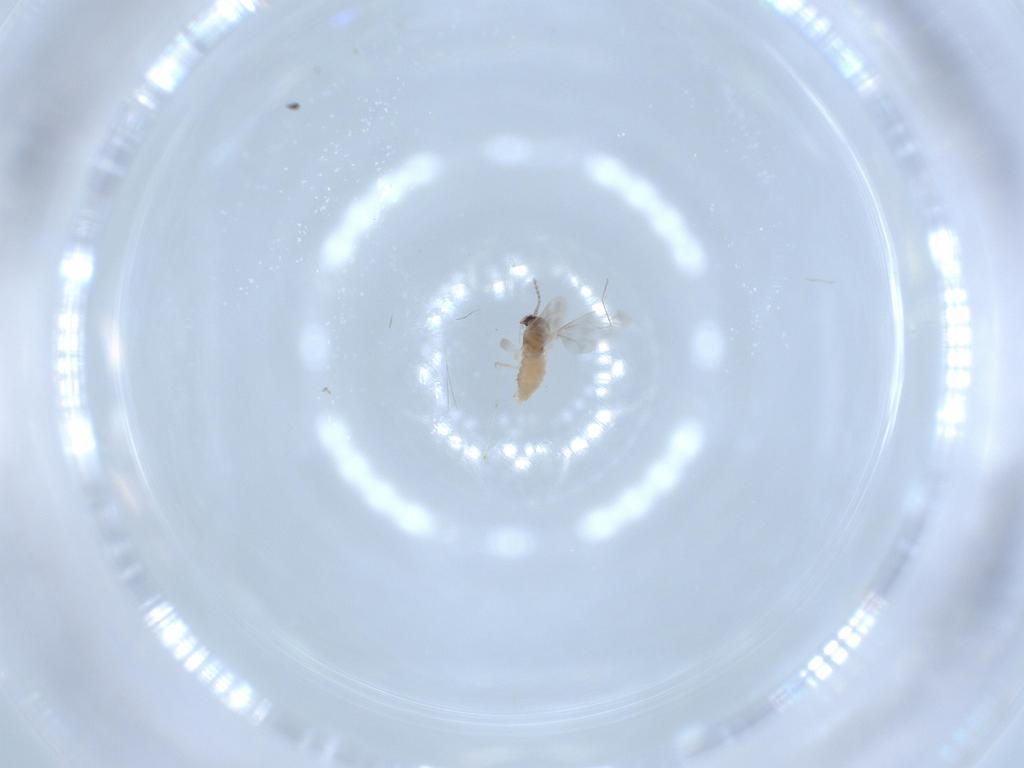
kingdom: Animalia
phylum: Arthropoda
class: Insecta
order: Diptera
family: Cecidomyiidae
